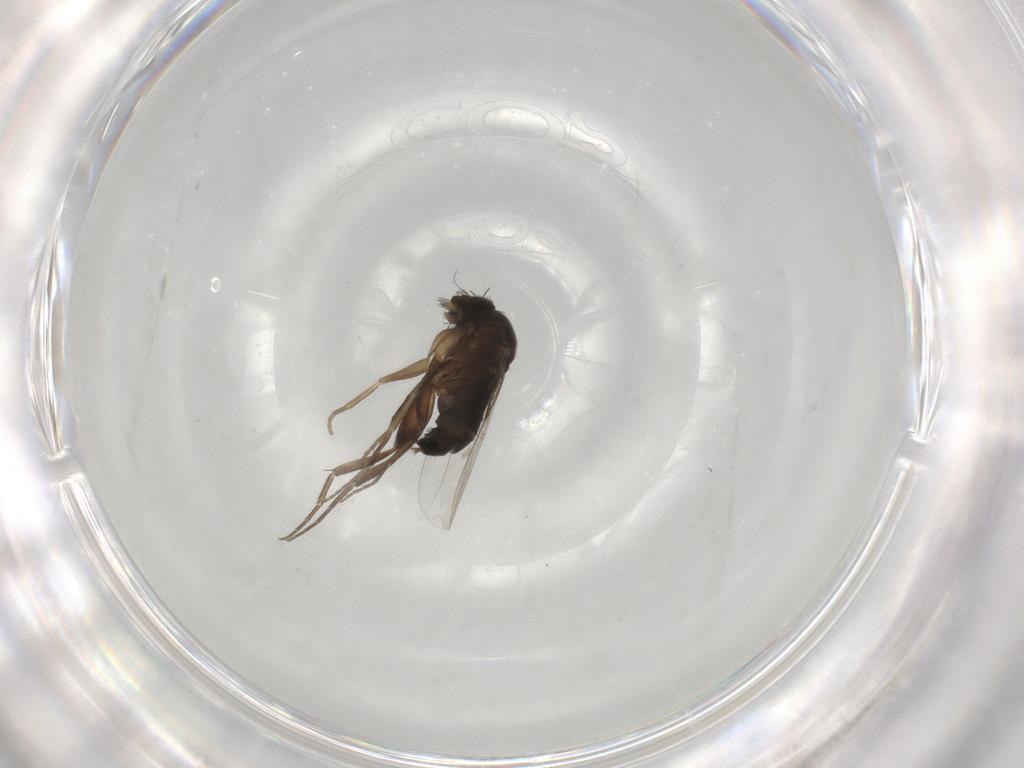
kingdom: Animalia
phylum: Arthropoda
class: Insecta
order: Diptera
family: Phoridae
